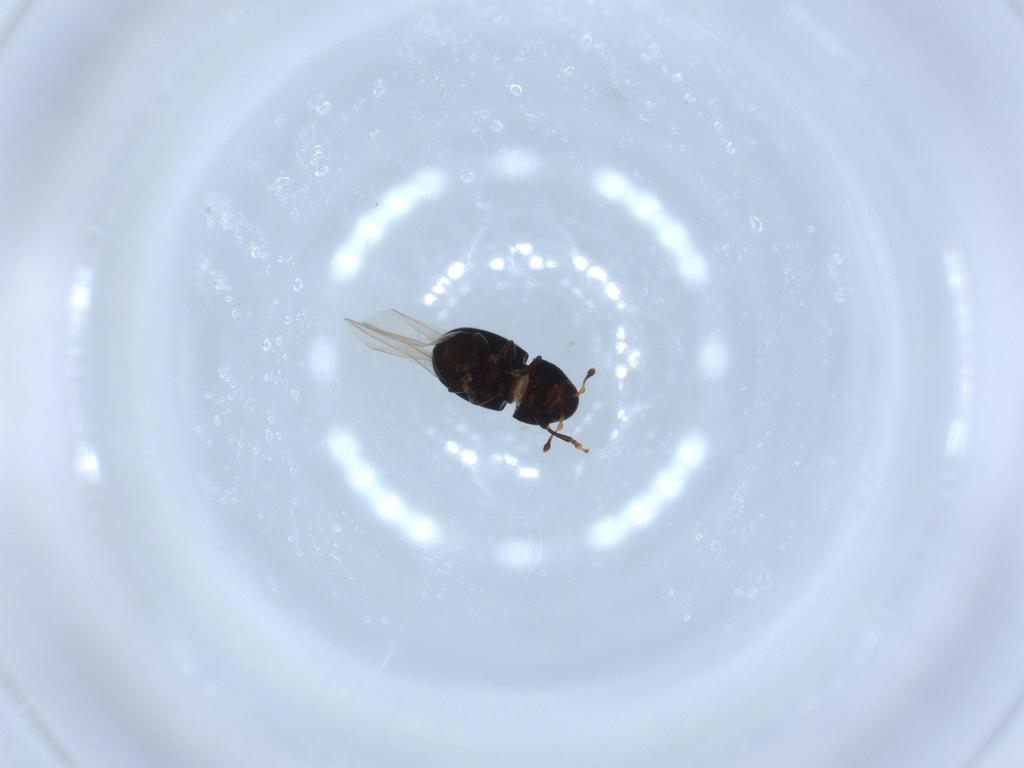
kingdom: Animalia
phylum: Arthropoda
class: Insecta
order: Coleoptera
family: Anthribidae
